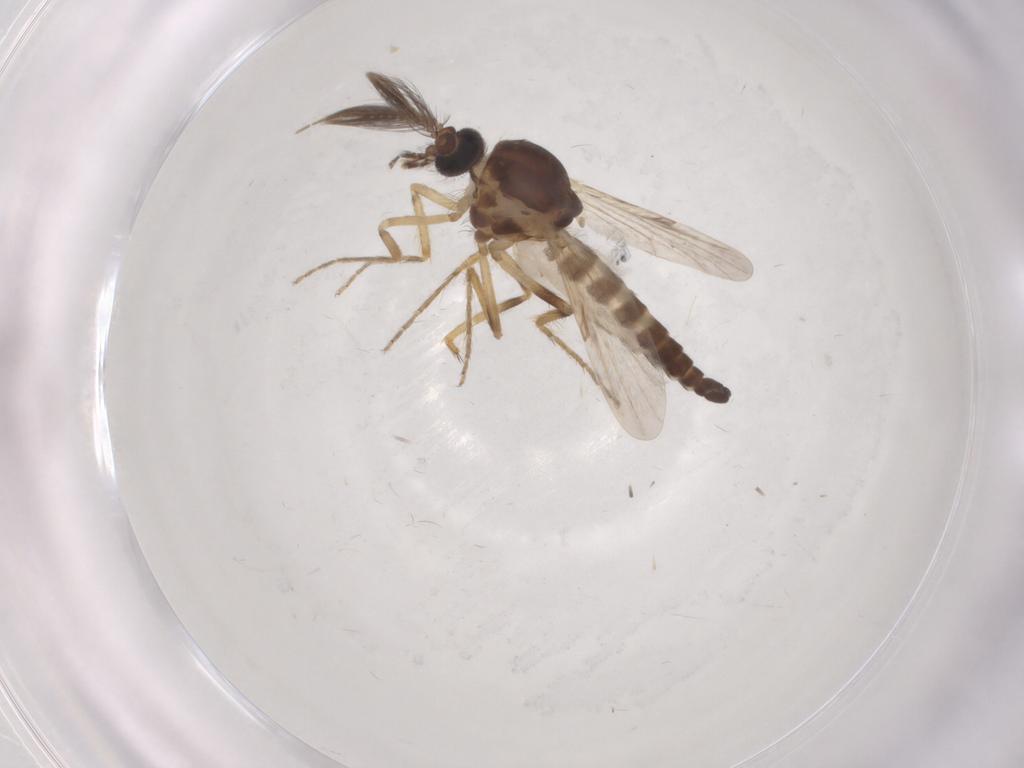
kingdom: Animalia
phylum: Arthropoda
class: Insecta
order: Diptera
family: Ceratopogonidae
